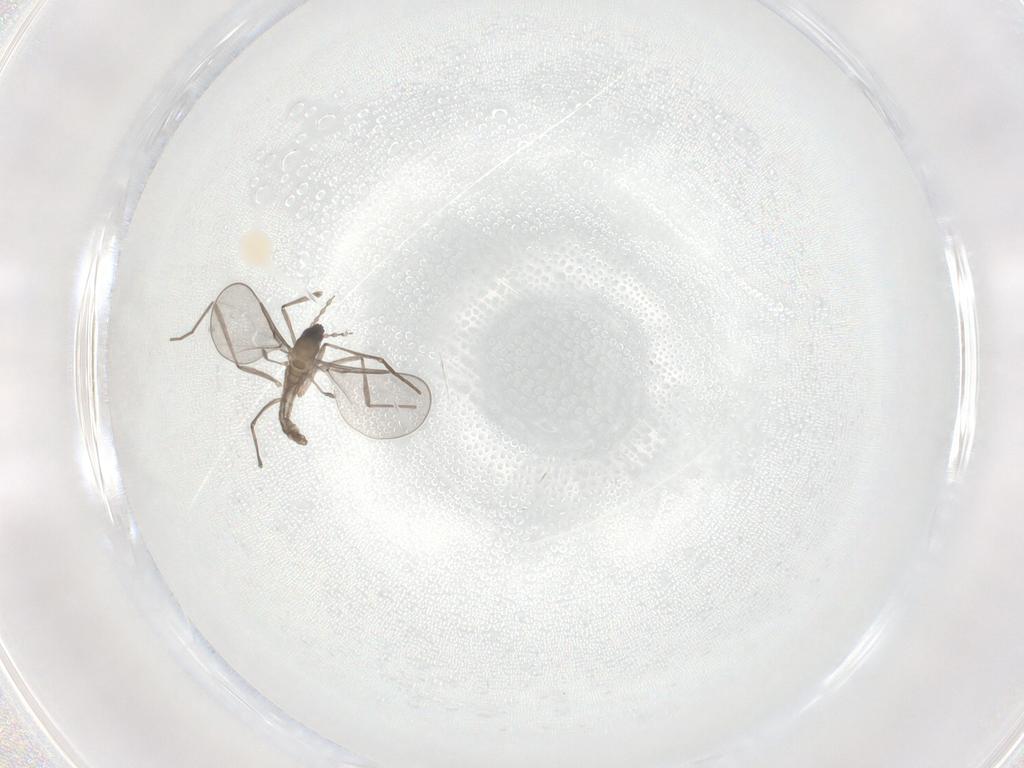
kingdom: Animalia
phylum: Arthropoda
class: Insecta
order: Diptera
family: Cecidomyiidae
